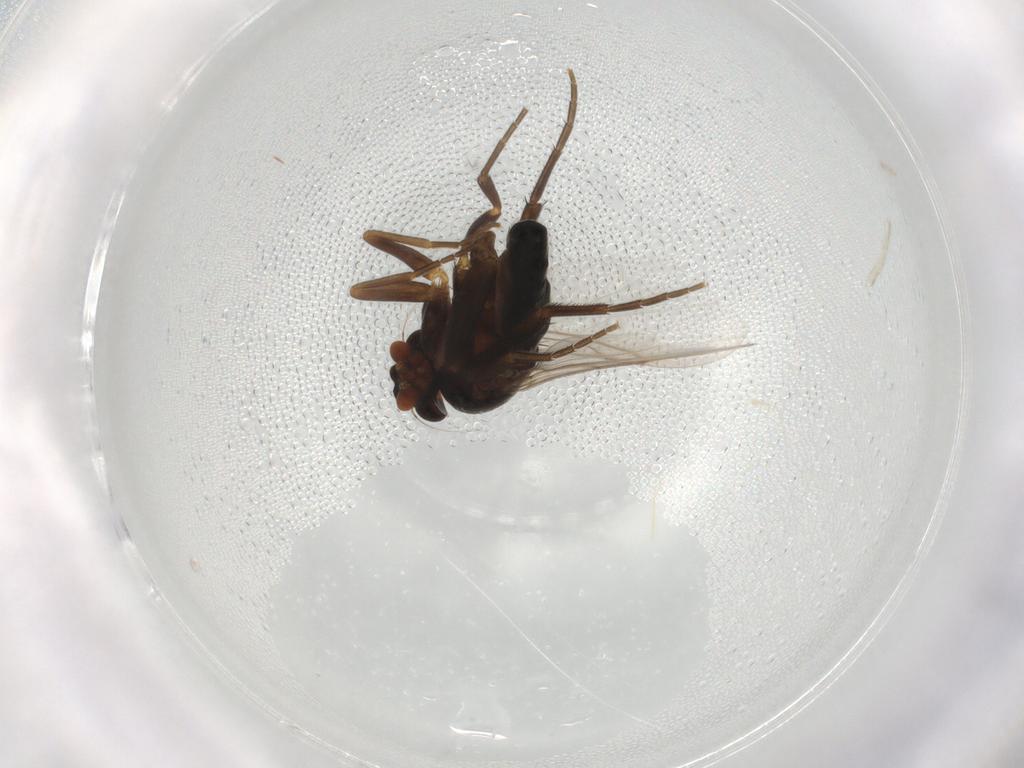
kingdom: Animalia
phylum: Arthropoda
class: Insecta
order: Diptera
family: Phoridae
